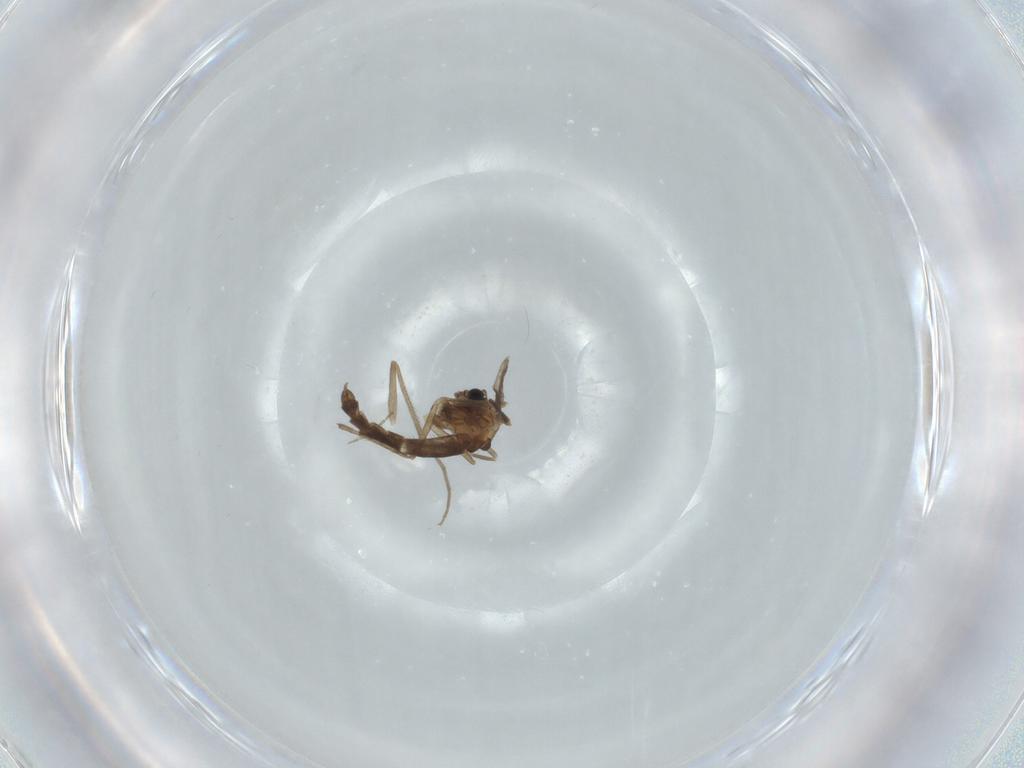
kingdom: Animalia
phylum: Arthropoda
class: Insecta
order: Diptera
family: Chironomidae
